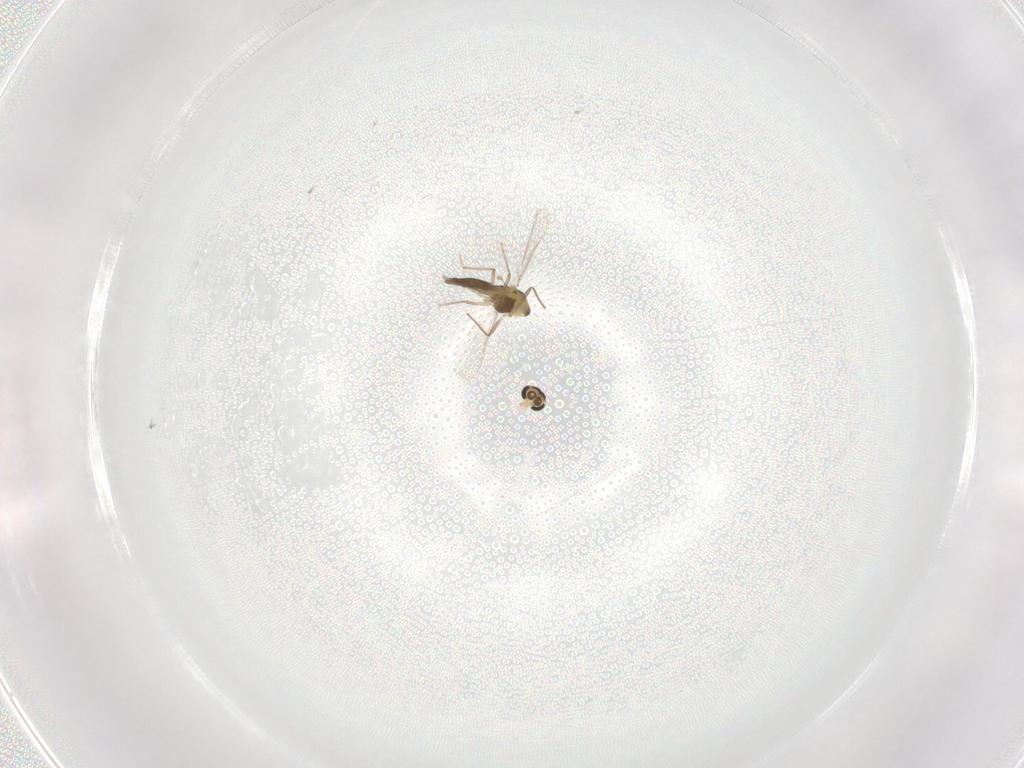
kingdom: Animalia
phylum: Arthropoda
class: Insecta
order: Diptera
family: Chironomidae
